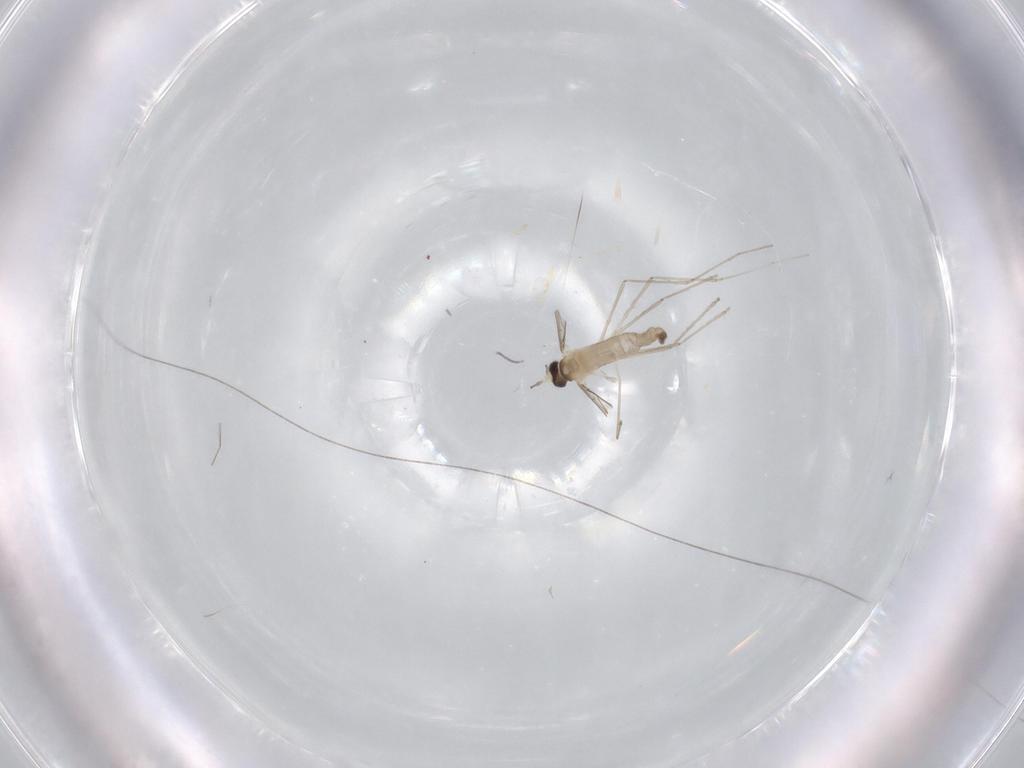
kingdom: Animalia
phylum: Arthropoda
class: Insecta
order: Diptera
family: Cecidomyiidae
